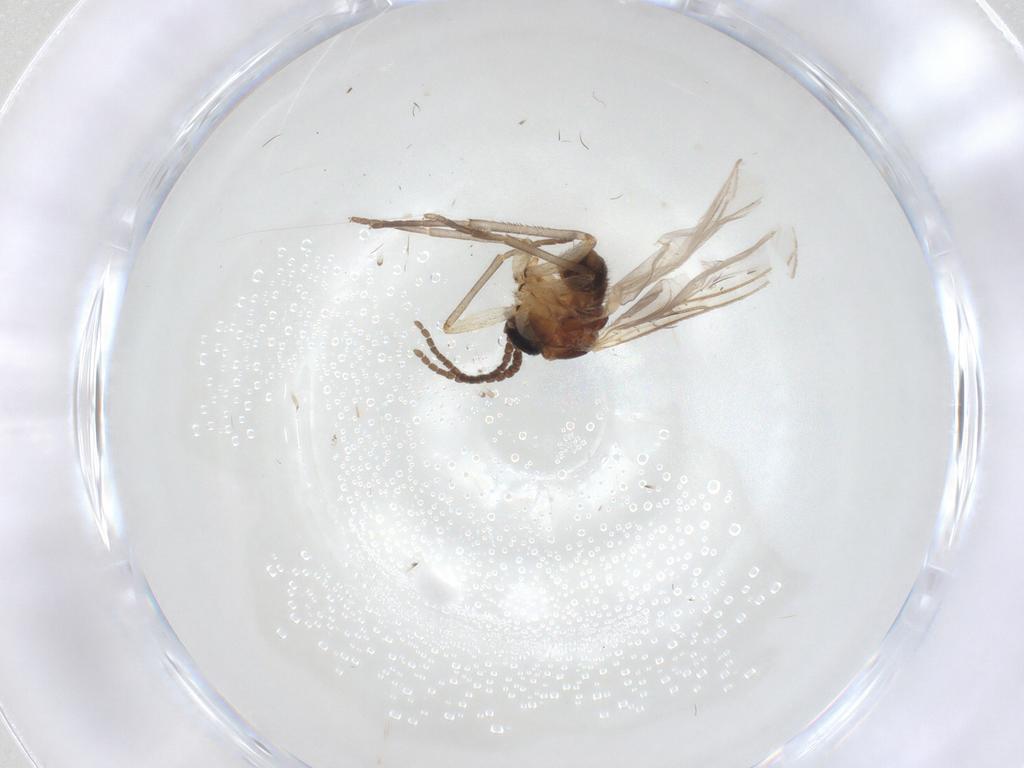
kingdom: Animalia
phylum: Arthropoda
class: Insecta
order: Diptera
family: Sciaridae
